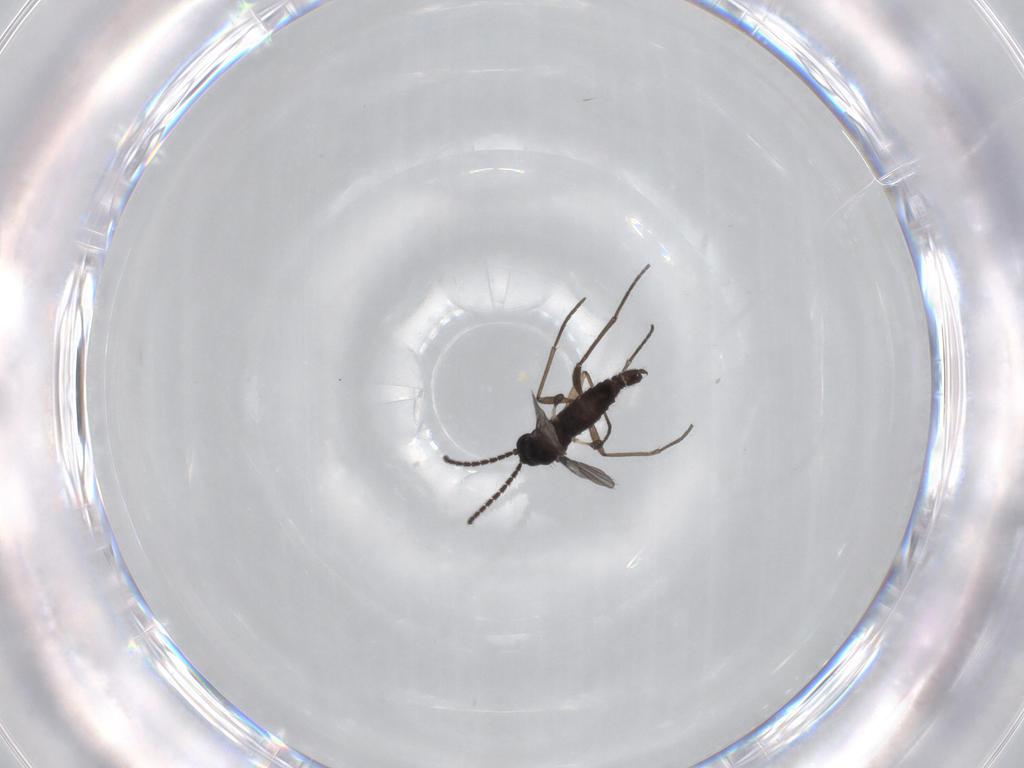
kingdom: Animalia
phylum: Arthropoda
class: Insecta
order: Diptera
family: Sciaridae
